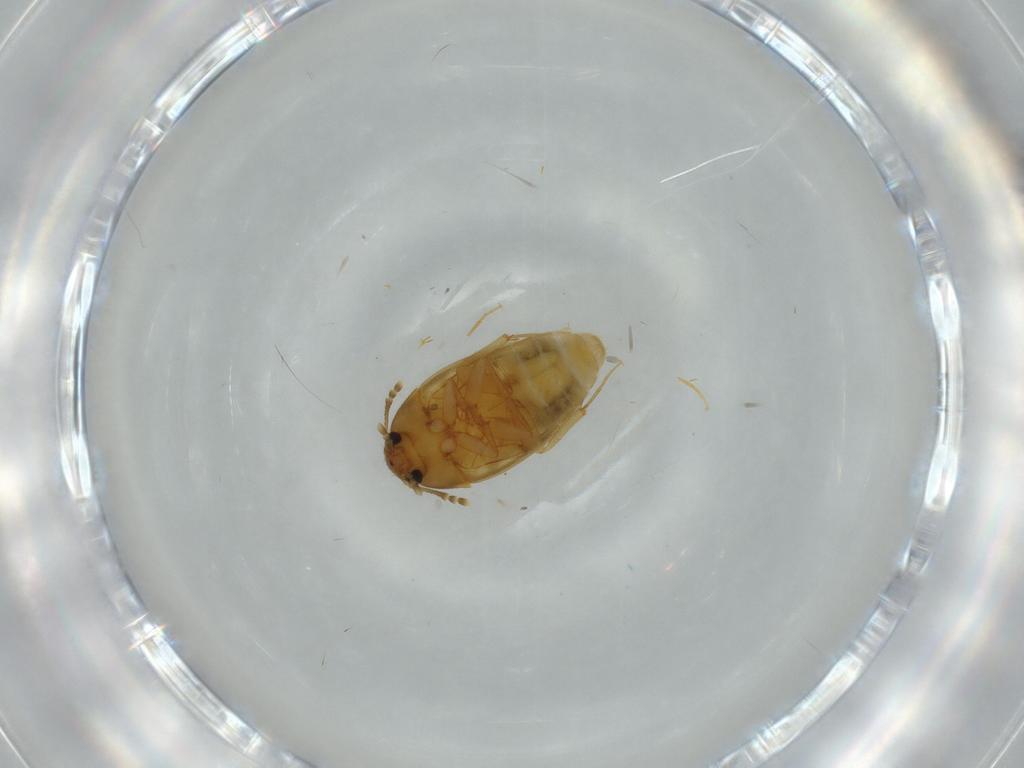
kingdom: Animalia
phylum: Arthropoda
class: Insecta
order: Coleoptera
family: Mycetophagidae
